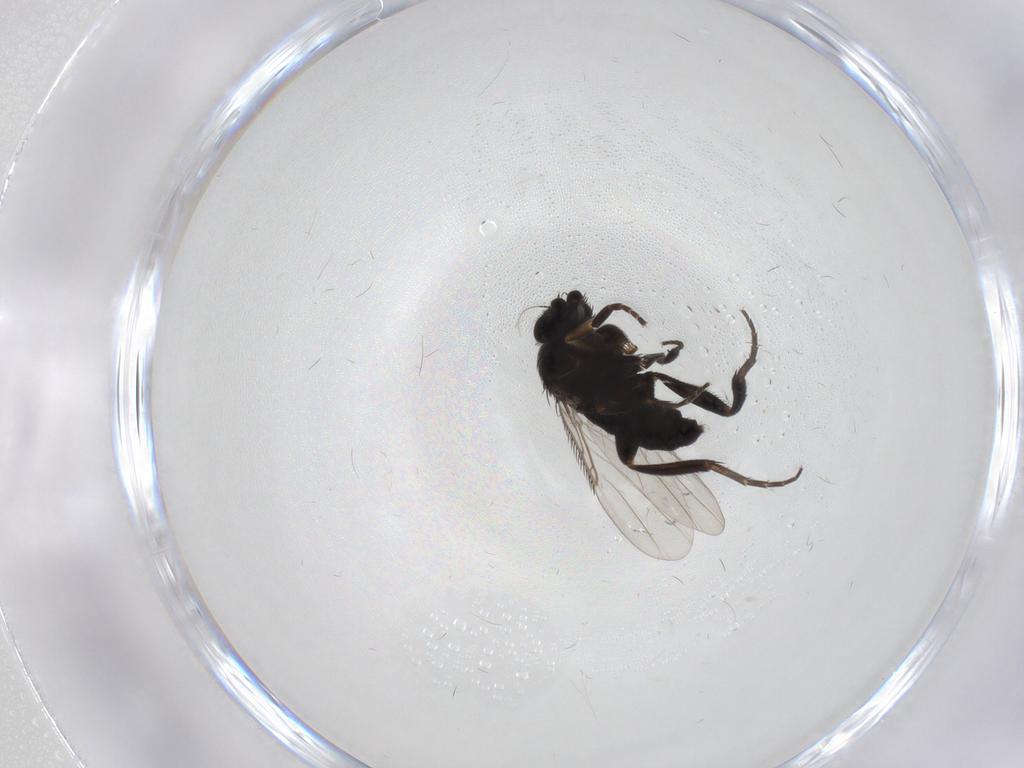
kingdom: Animalia
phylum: Arthropoda
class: Insecta
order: Diptera
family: Phoridae
